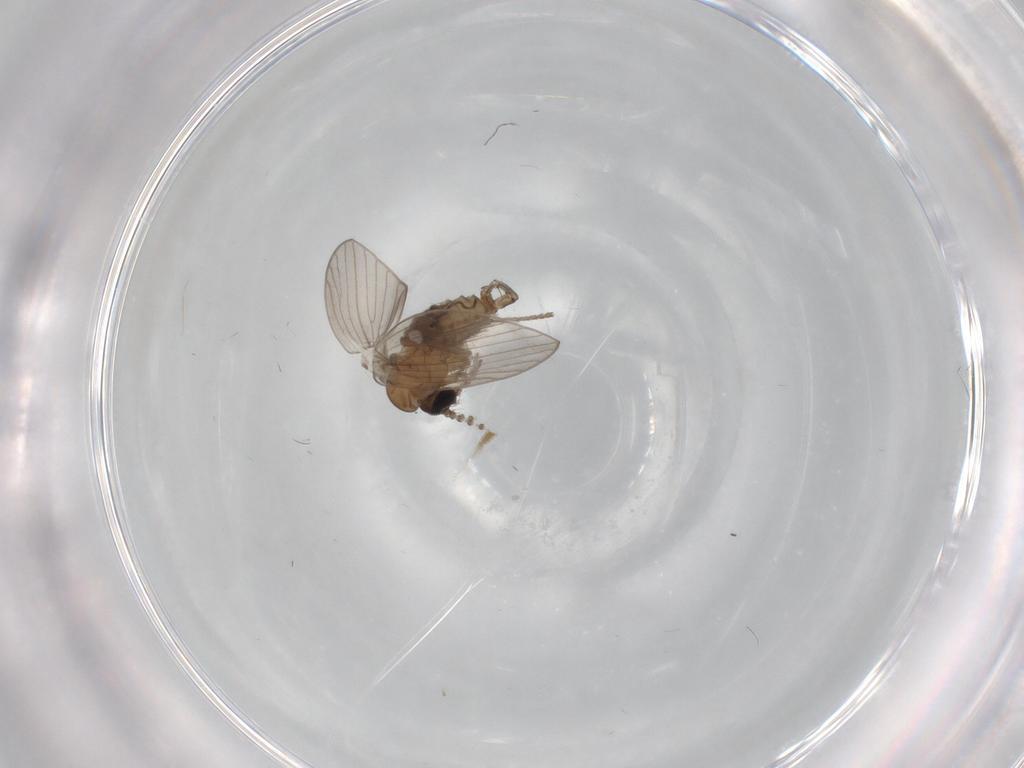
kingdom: Animalia
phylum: Arthropoda
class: Insecta
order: Diptera
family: Psychodidae
